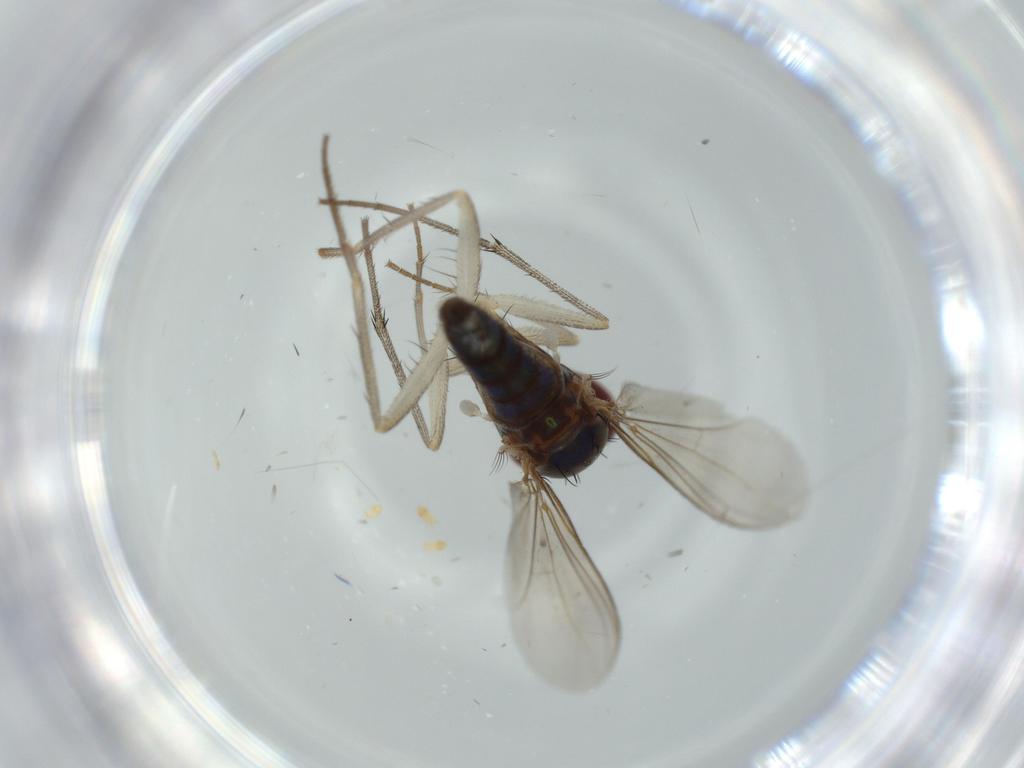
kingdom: Animalia
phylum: Arthropoda
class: Insecta
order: Diptera
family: Dolichopodidae
